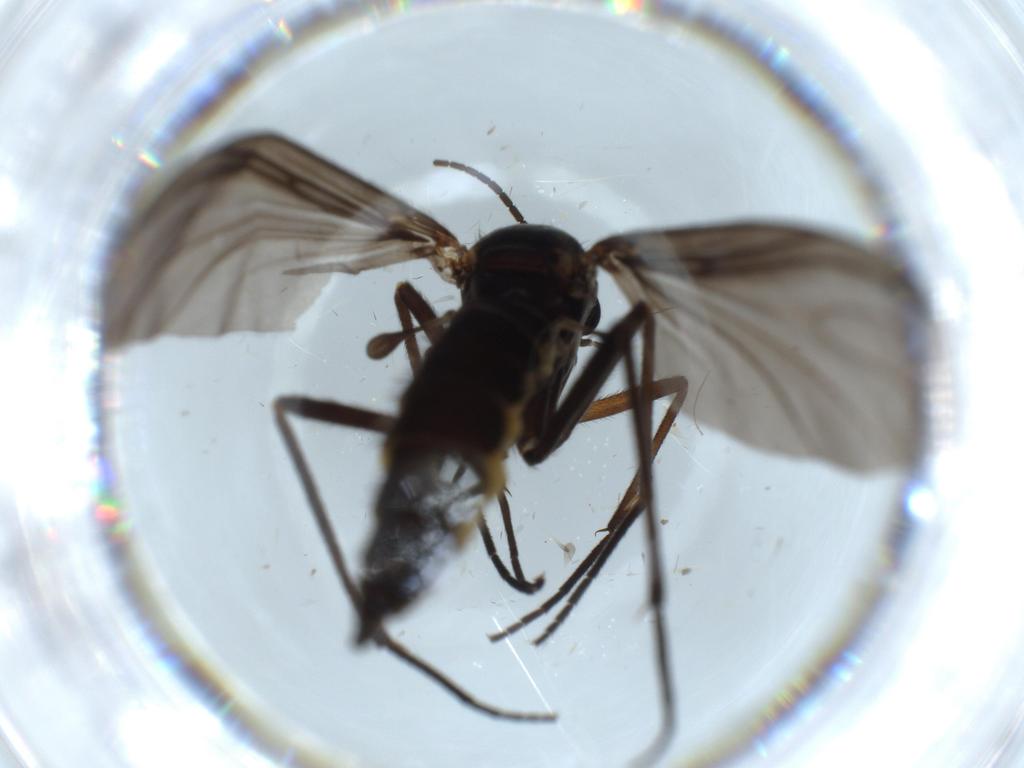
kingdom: Animalia
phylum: Arthropoda
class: Insecta
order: Diptera
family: Sciaridae
